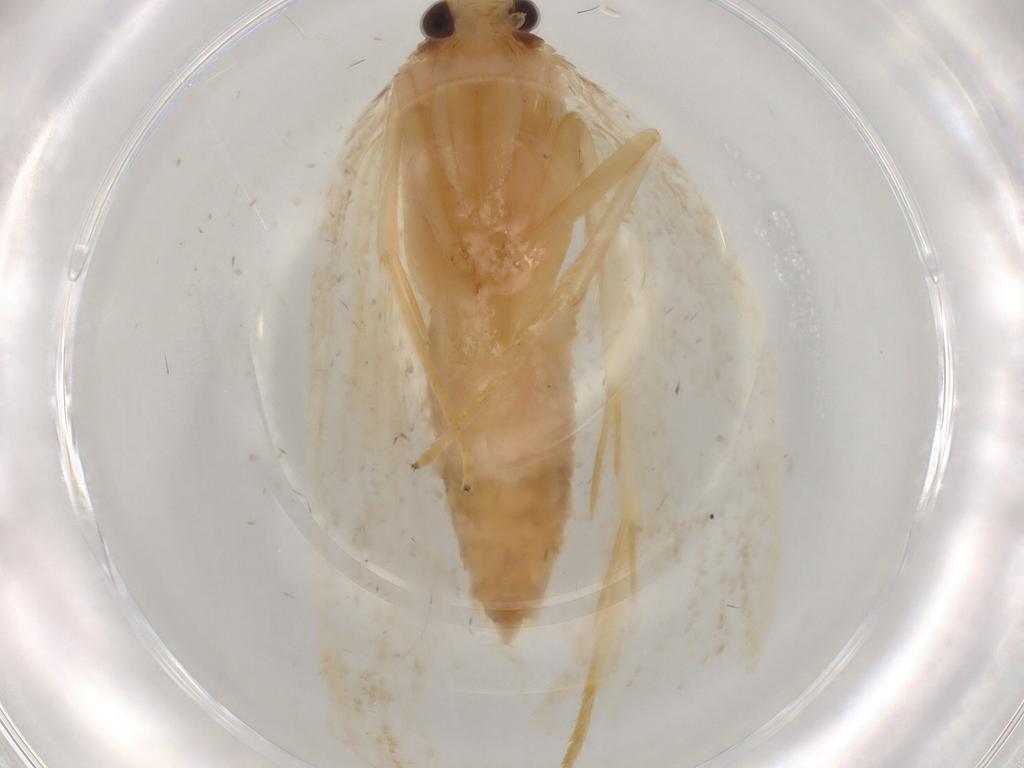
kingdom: Animalia
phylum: Arthropoda
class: Insecta
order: Lepidoptera
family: Lecithoceridae
